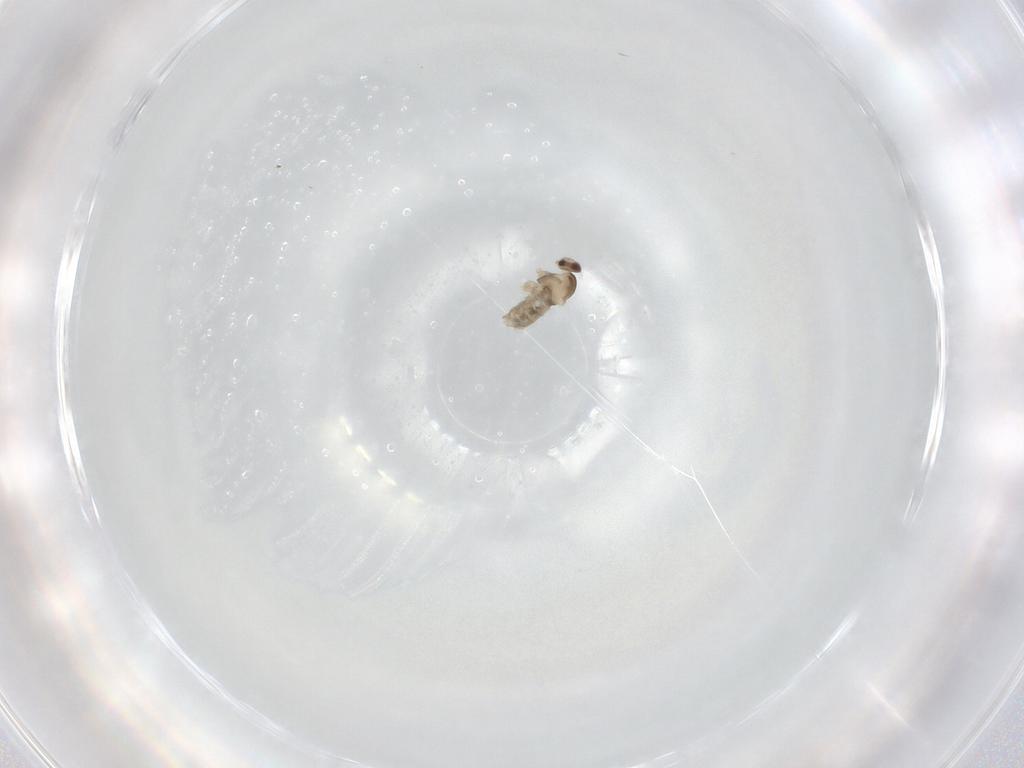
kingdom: Animalia
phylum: Arthropoda
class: Insecta
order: Diptera
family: Cecidomyiidae
